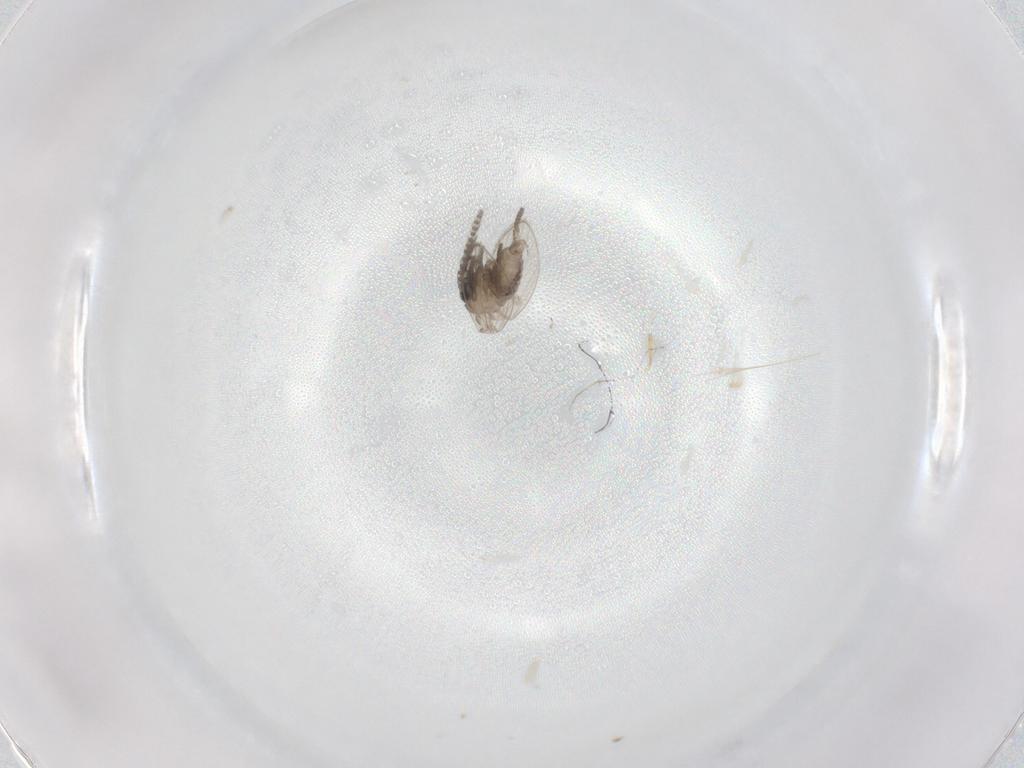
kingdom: Animalia
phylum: Arthropoda
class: Insecta
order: Diptera
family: Psychodidae
